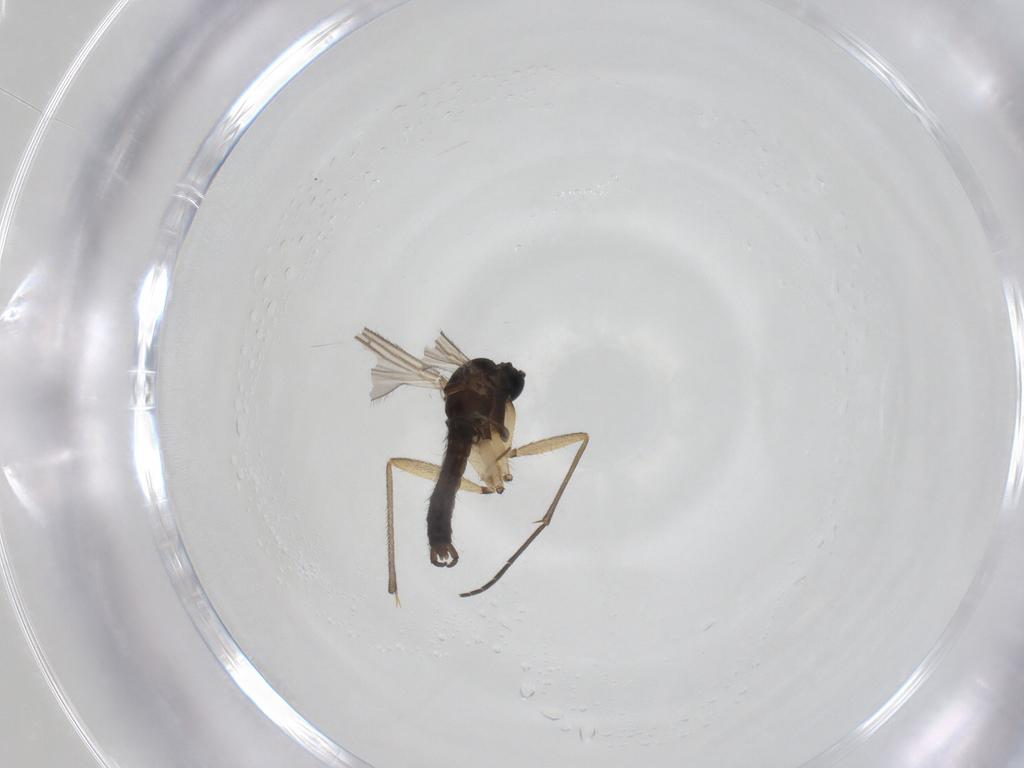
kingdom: Animalia
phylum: Arthropoda
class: Insecta
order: Diptera
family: Sciaridae
